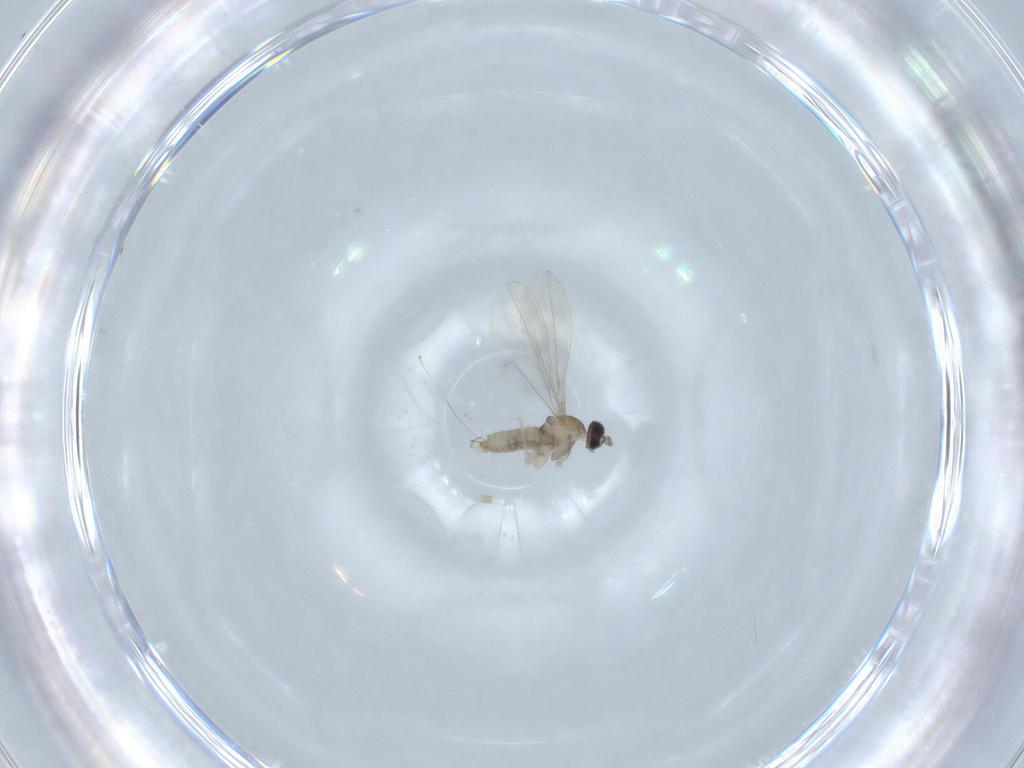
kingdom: Animalia
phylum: Arthropoda
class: Insecta
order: Diptera
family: Cecidomyiidae
